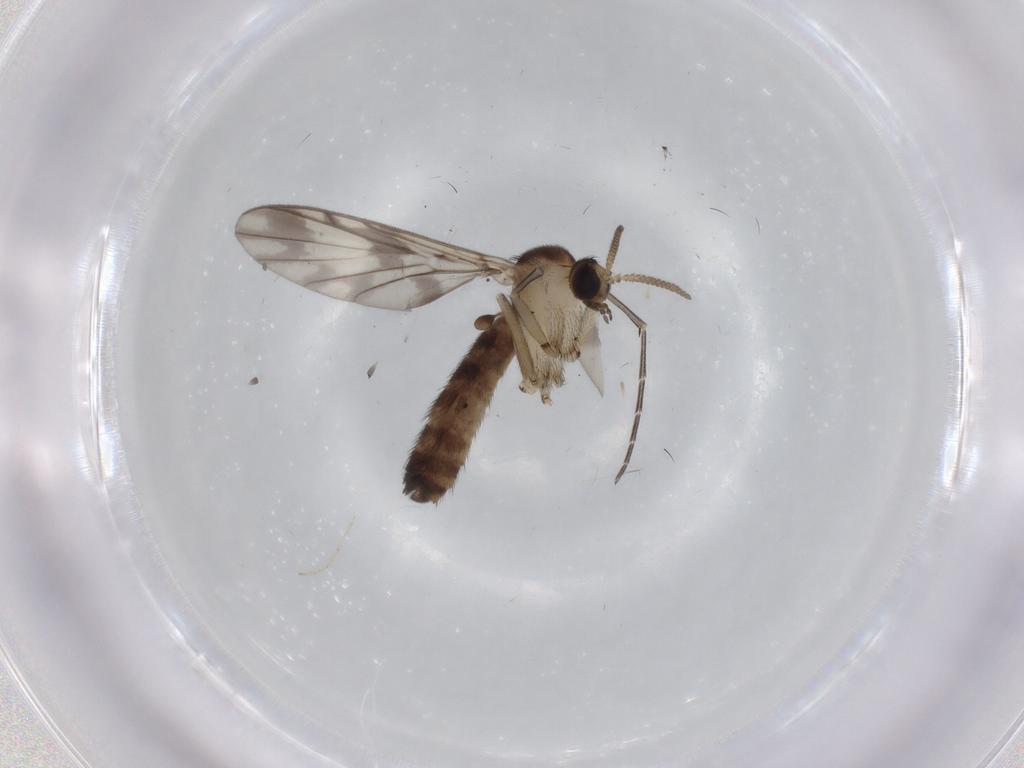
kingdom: Animalia
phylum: Arthropoda
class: Insecta
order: Diptera
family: Keroplatidae
